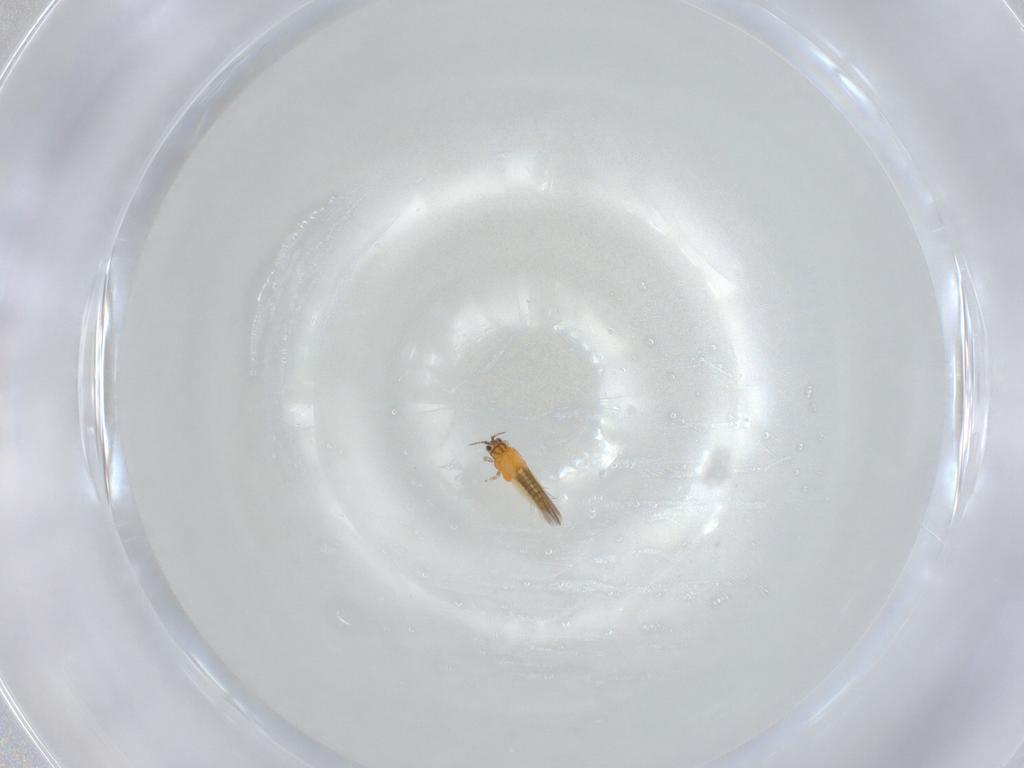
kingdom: Animalia
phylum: Arthropoda
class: Insecta
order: Thysanoptera
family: Thripidae
